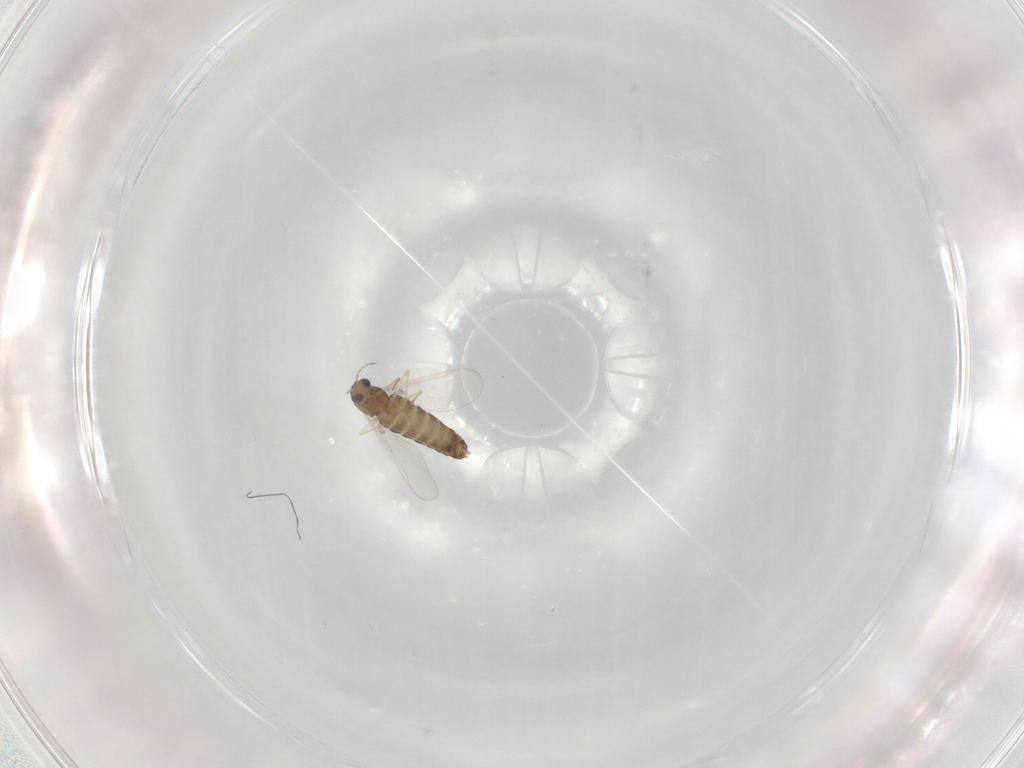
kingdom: Animalia
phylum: Arthropoda
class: Insecta
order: Diptera
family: Chironomidae
